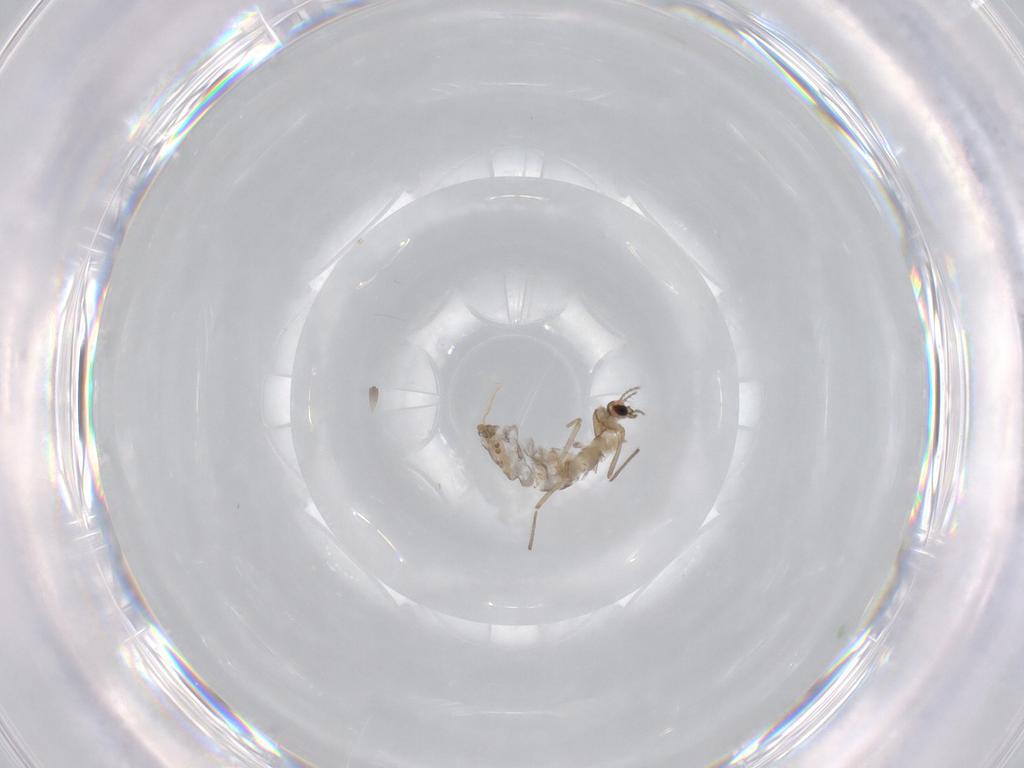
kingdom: Animalia
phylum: Arthropoda
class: Insecta
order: Diptera
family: Chironomidae
